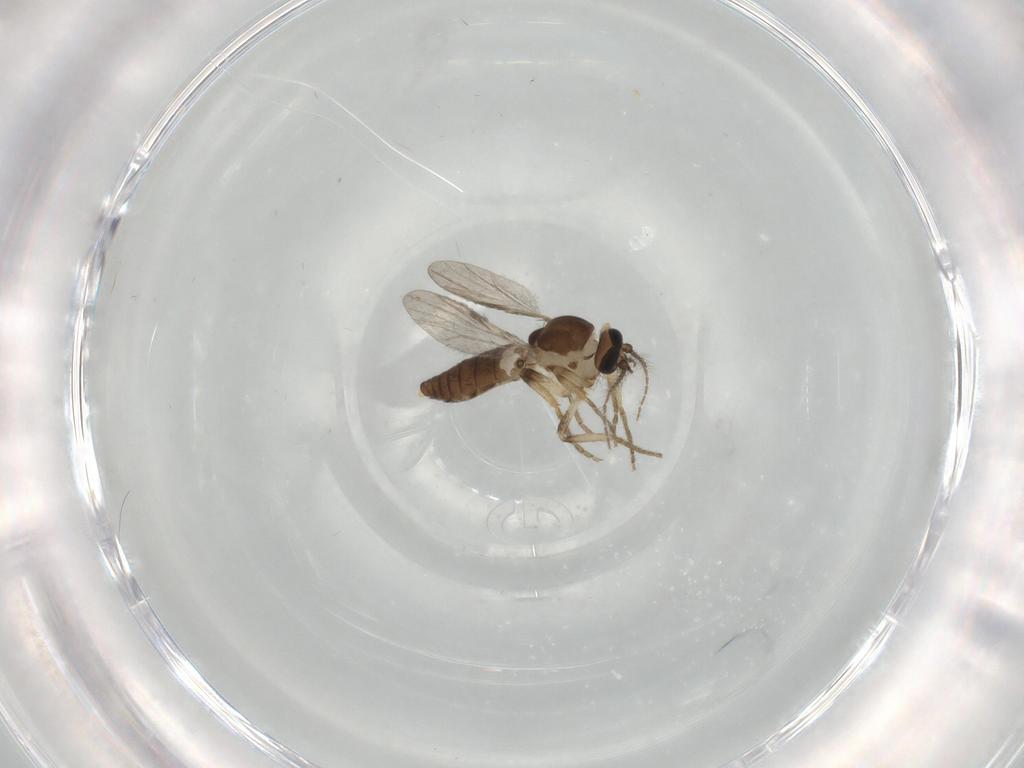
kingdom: Animalia
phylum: Arthropoda
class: Insecta
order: Diptera
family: Ceratopogonidae
